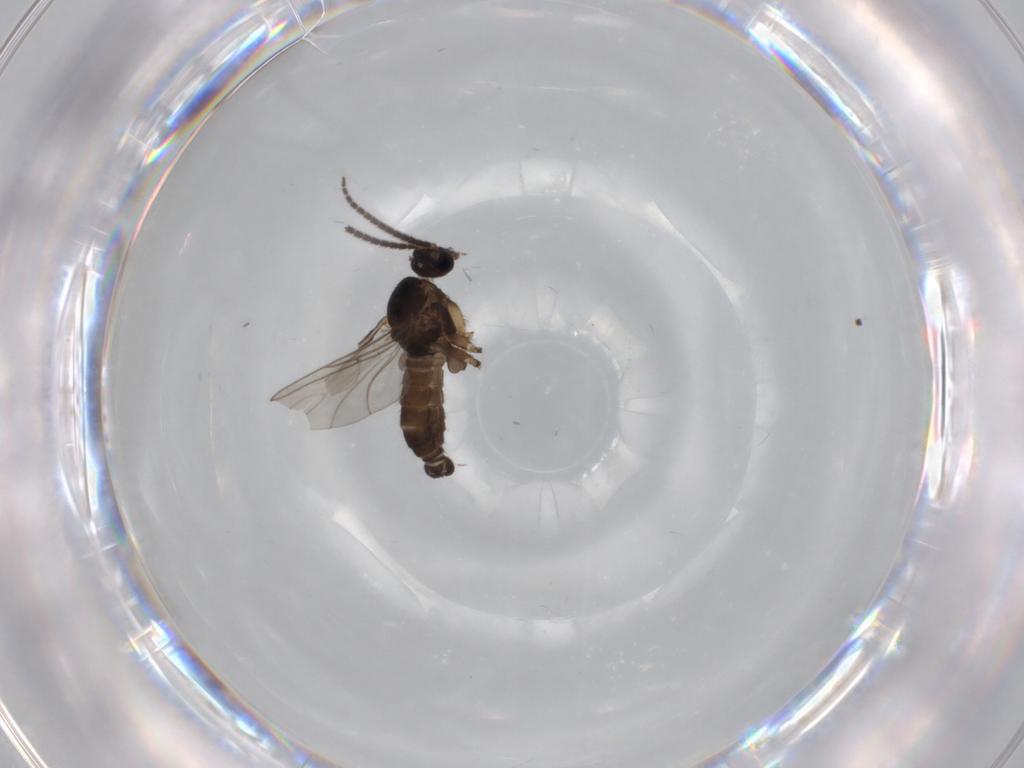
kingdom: Animalia
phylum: Arthropoda
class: Insecta
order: Diptera
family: Sciaridae
